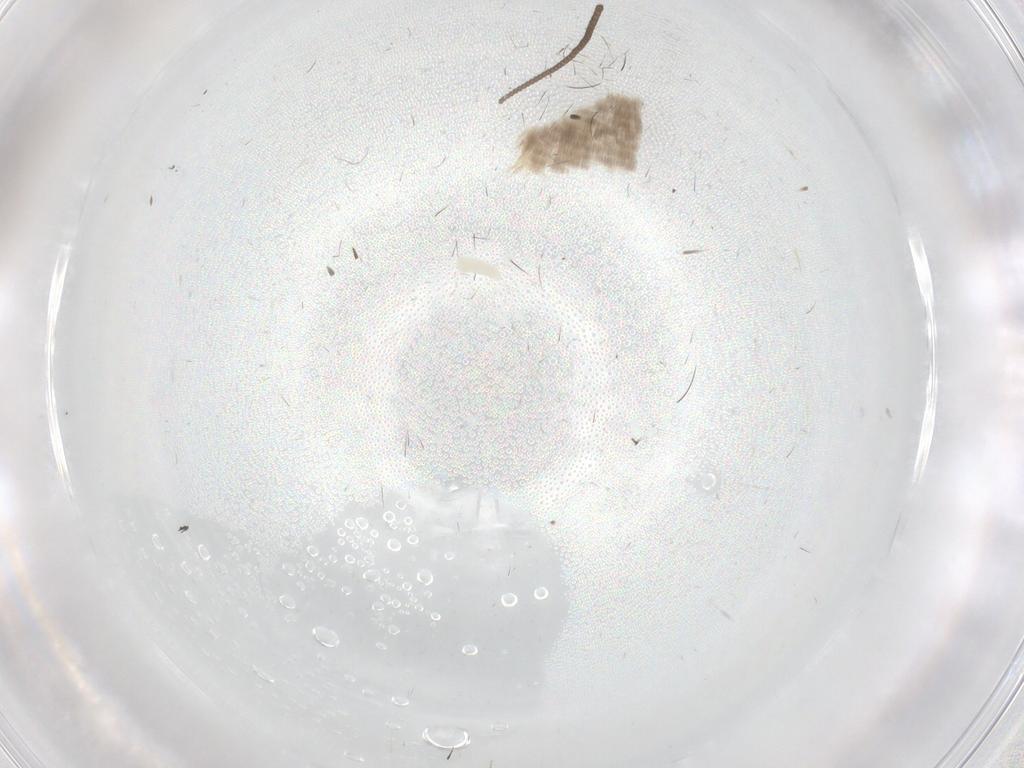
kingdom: Animalia
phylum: Arthropoda
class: Insecta
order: Diptera
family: Bibionidae
